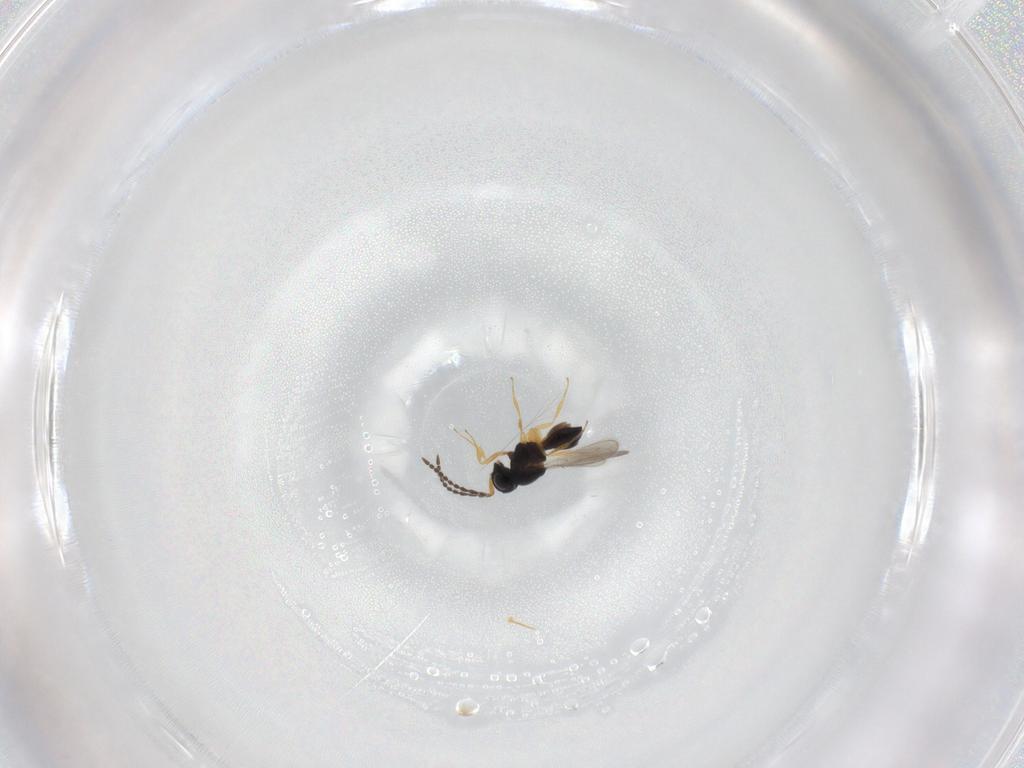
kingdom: Animalia
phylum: Arthropoda
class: Insecta
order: Hymenoptera
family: Scelionidae
